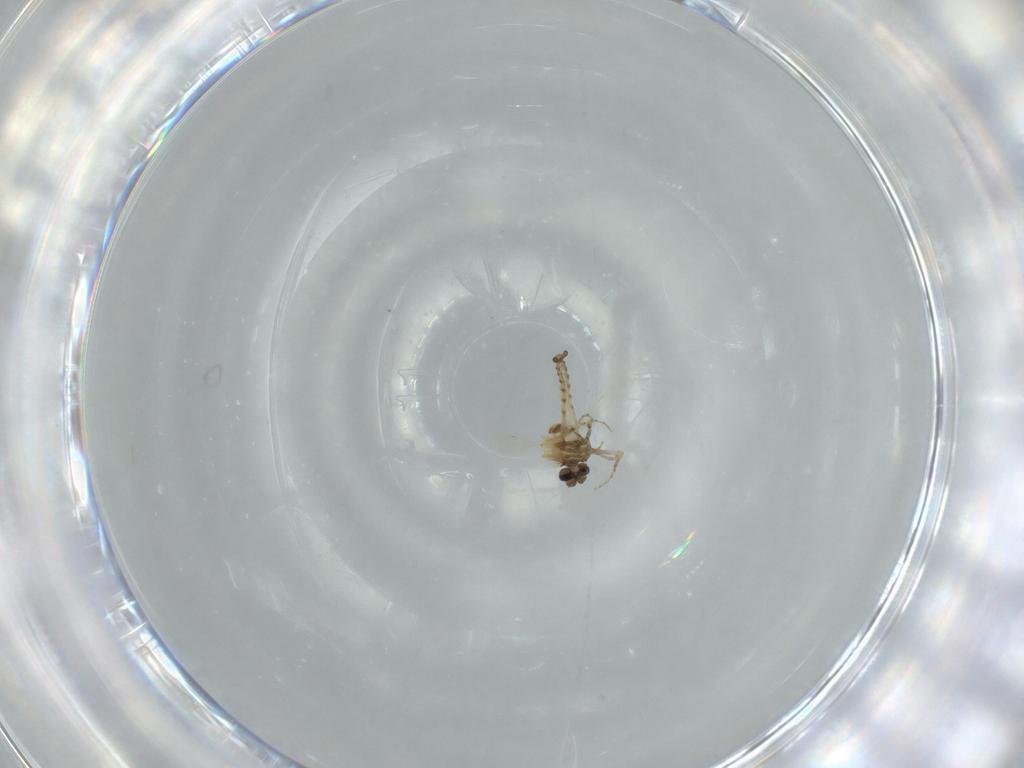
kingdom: Animalia
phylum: Arthropoda
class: Insecta
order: Diptera
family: Ceratopogonidae
